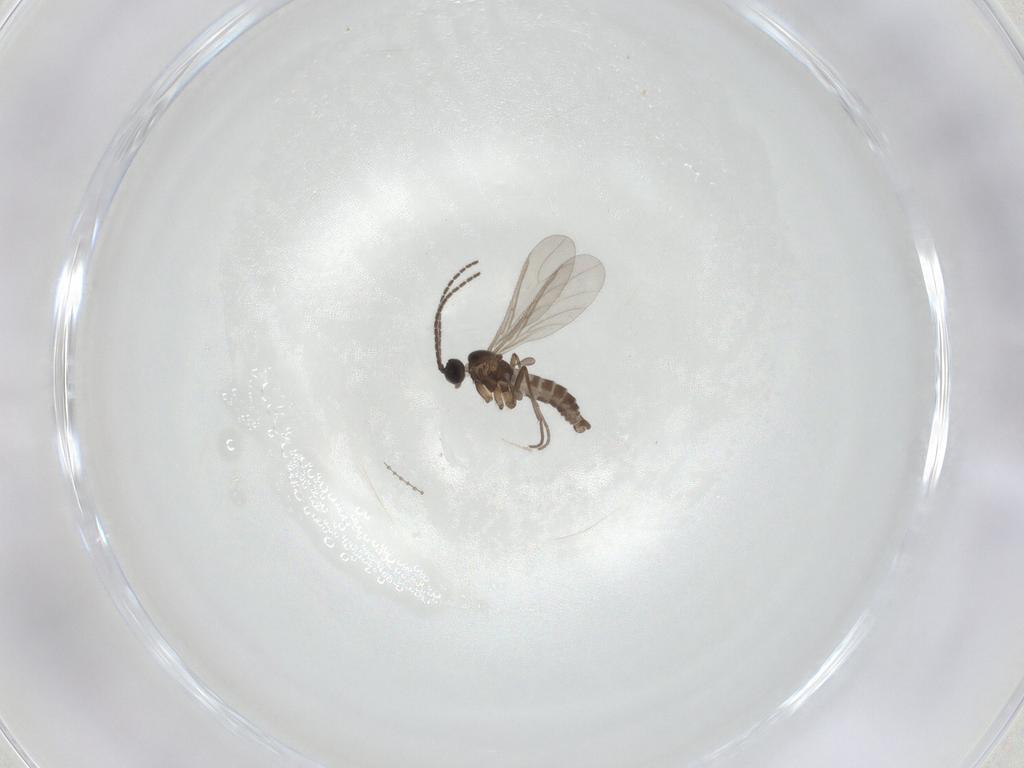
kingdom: Animalia
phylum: Arthropoda
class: Insecta
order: Diptera
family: Sciaridae
